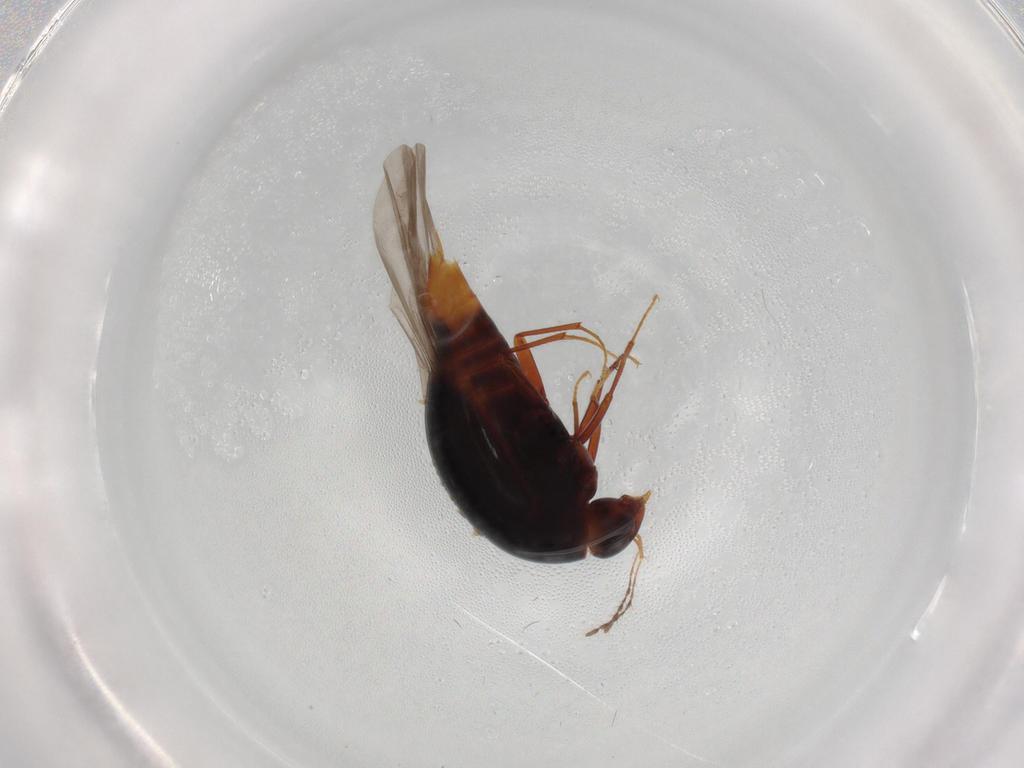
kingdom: Animalia
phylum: Arthropoda
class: Insecta
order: Coleoptera
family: Staphylinidae
